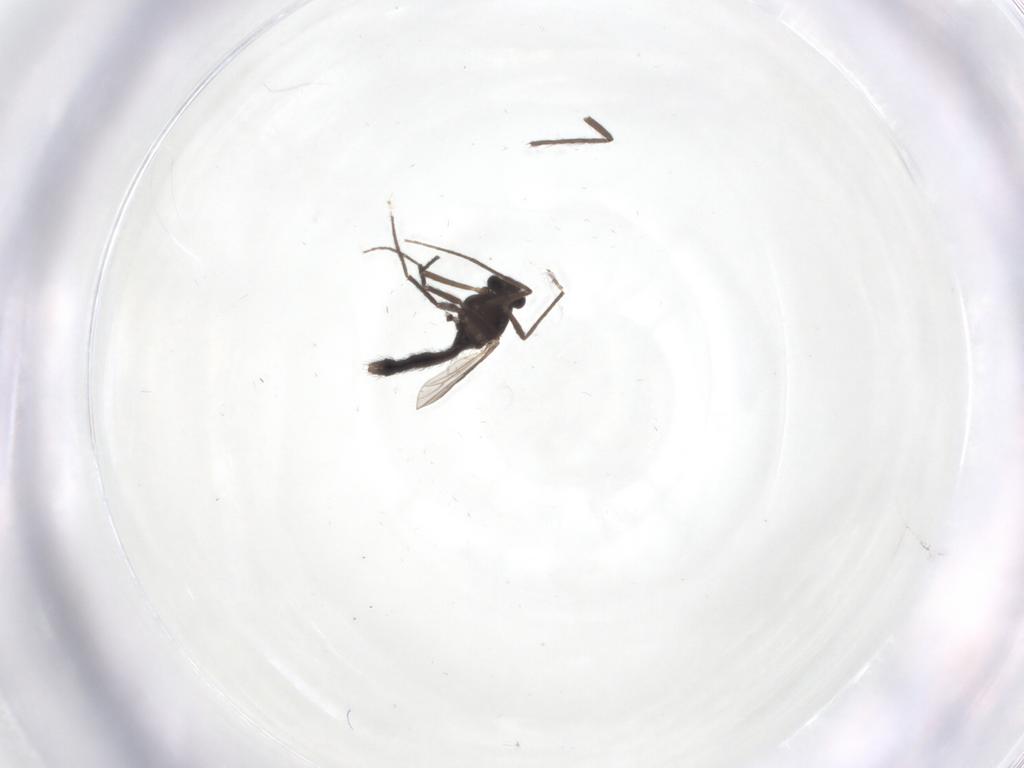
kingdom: Animalia
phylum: Arthropoda
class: Insecta
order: Diptera
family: Chironomidae
